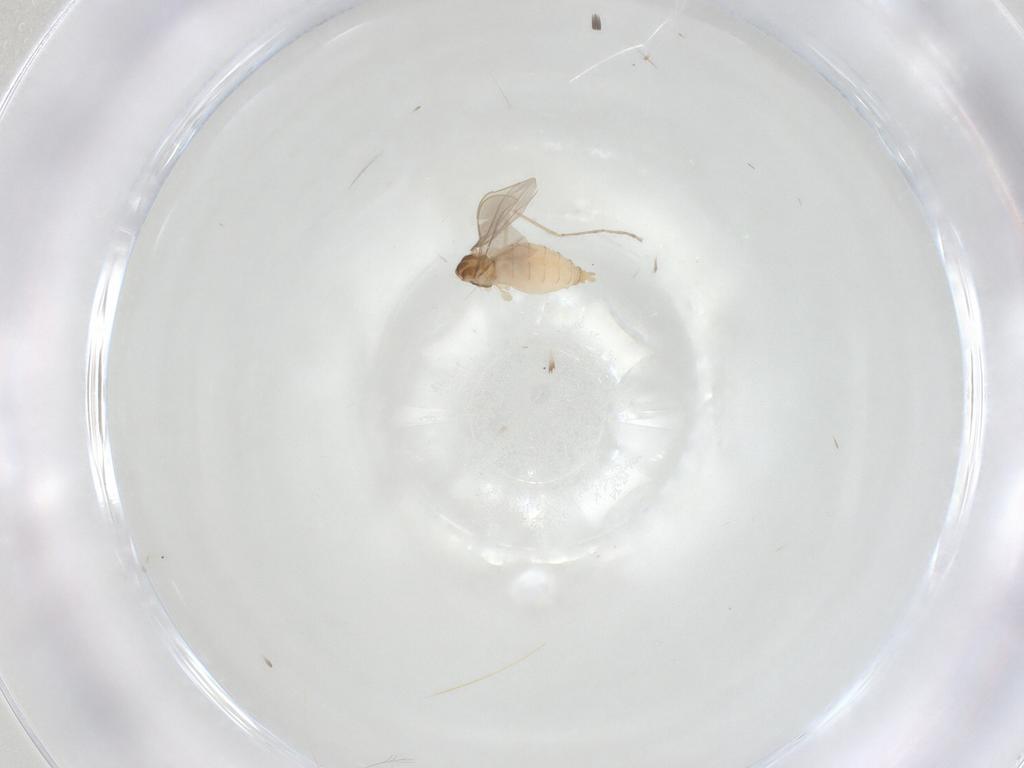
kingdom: Animalia
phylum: Arthropoda
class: Insecta
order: Diptera
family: Cecidomyiidae
